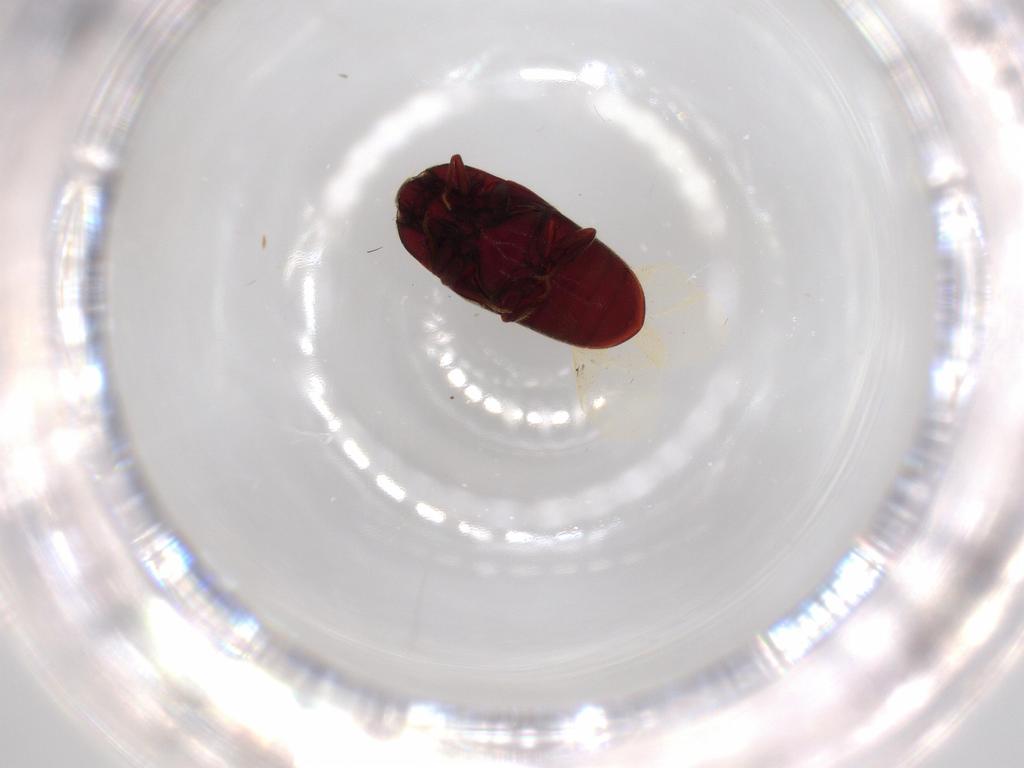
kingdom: Animalia
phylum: Arthropoda
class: Insecta
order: Coleoptera
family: Throscidae
